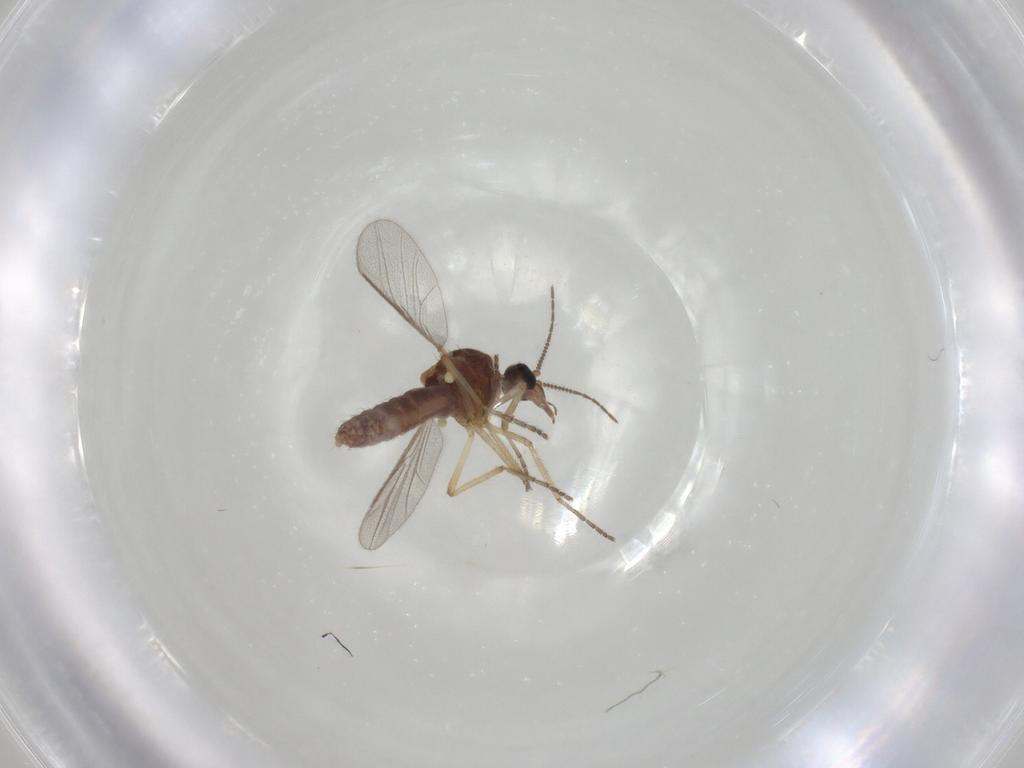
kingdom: Animalia
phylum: Arthropoda
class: Insecta
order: Diptera
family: Ceratopogonidae
